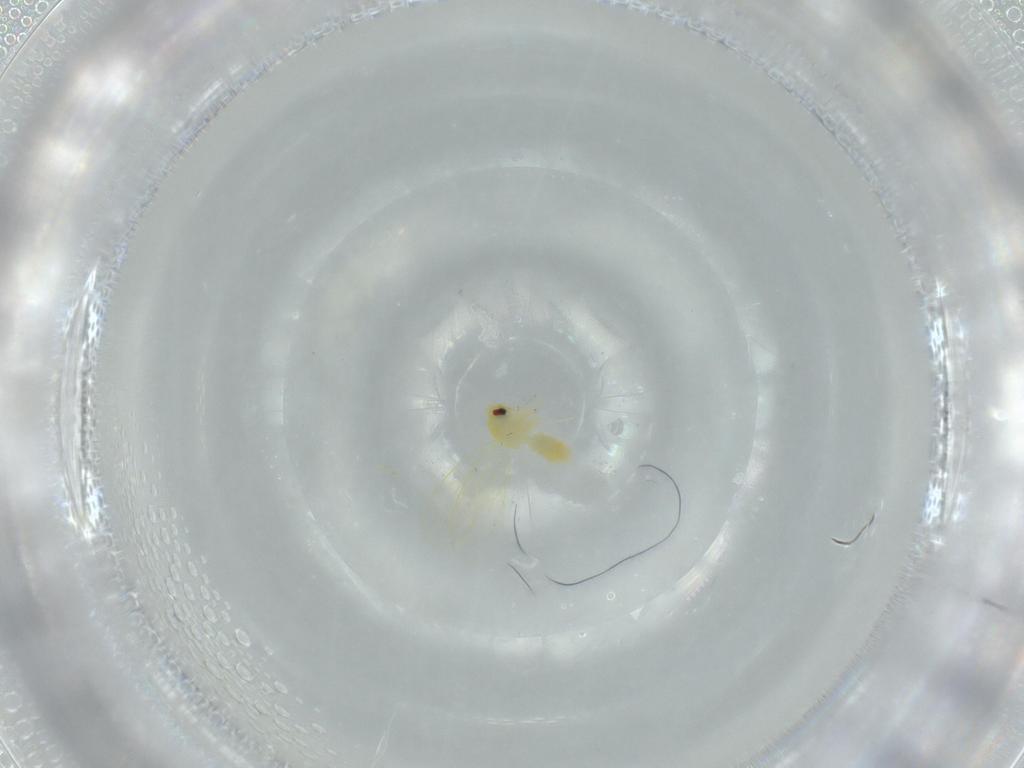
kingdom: Animalia
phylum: Arthropoda
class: Insecta
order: Hemiptera
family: Aleyrodidae
